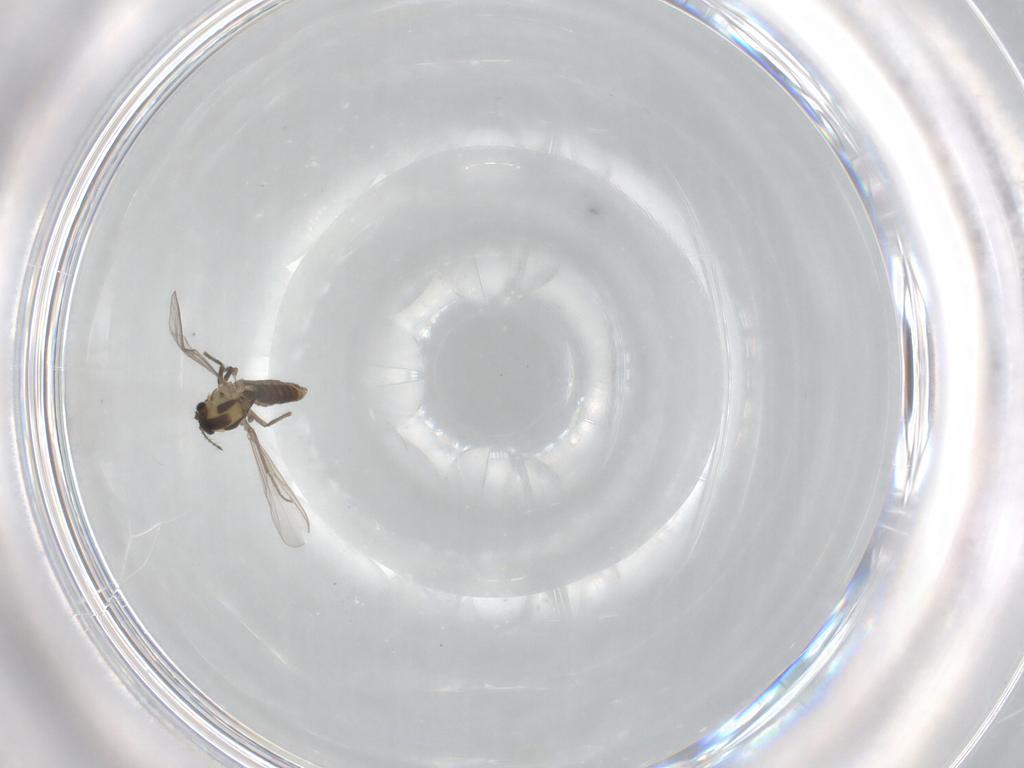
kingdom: Animalia
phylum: Arthropoda
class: Insecta
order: Diptera
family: Chironomidae
